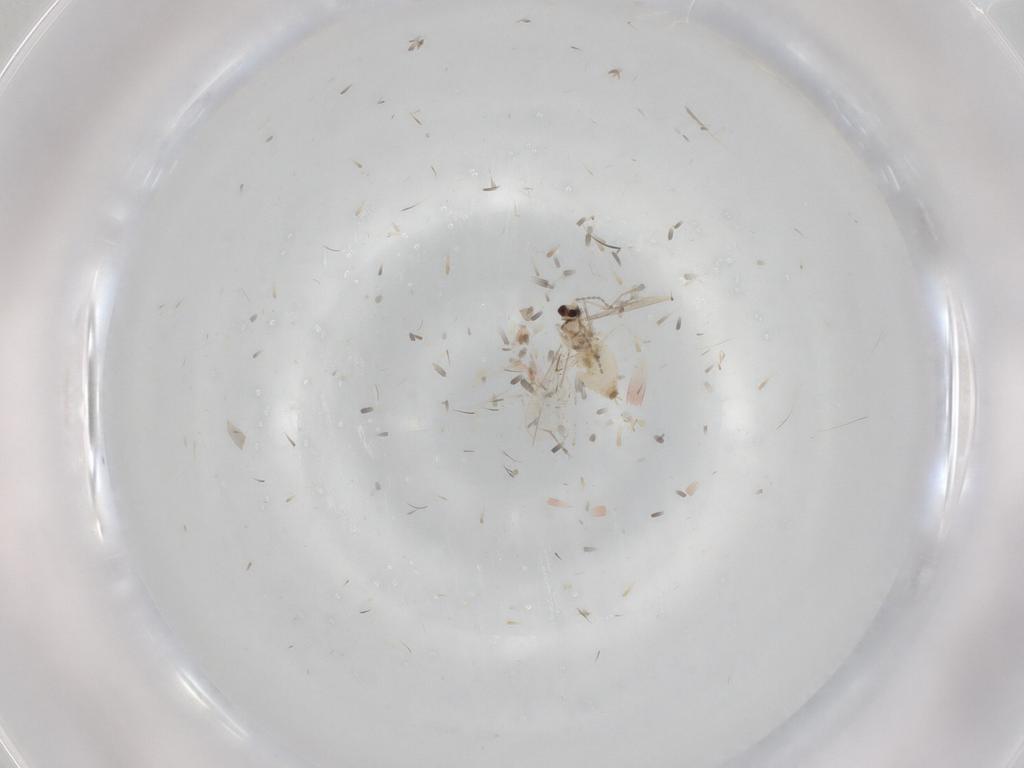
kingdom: Animalia
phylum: Arthropoda
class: Insecta
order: Diptera
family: Cecidomyiidae
